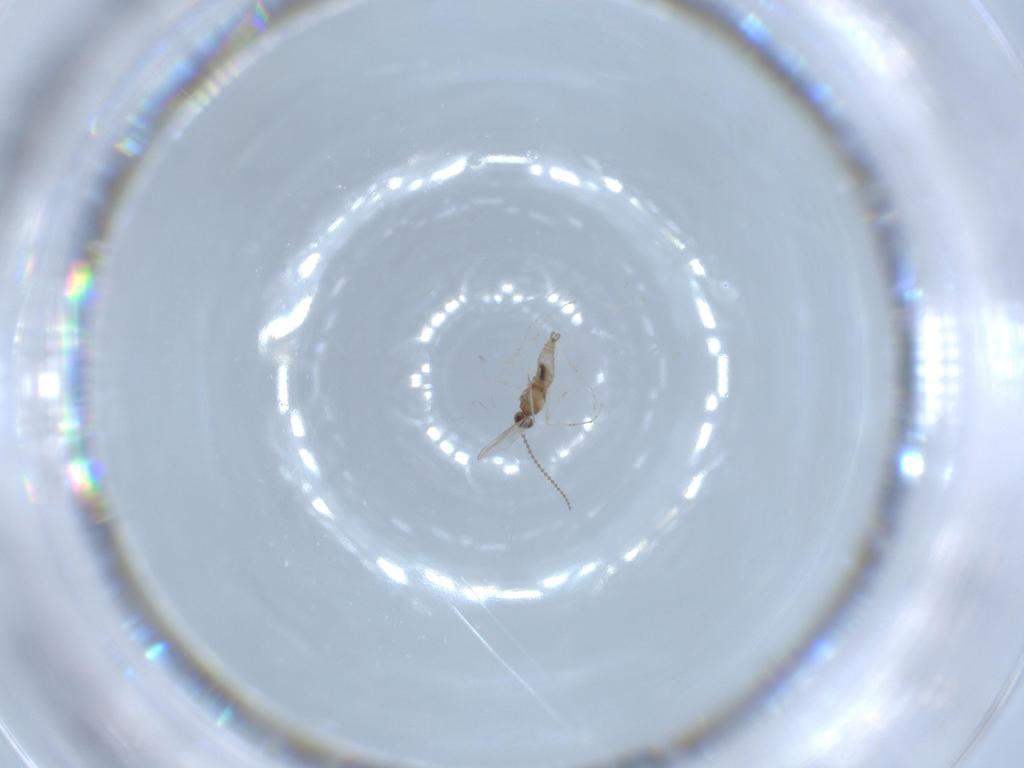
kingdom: Animalia
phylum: Arthropoda
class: Insecta
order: Diptera
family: Cecidomyiidae
